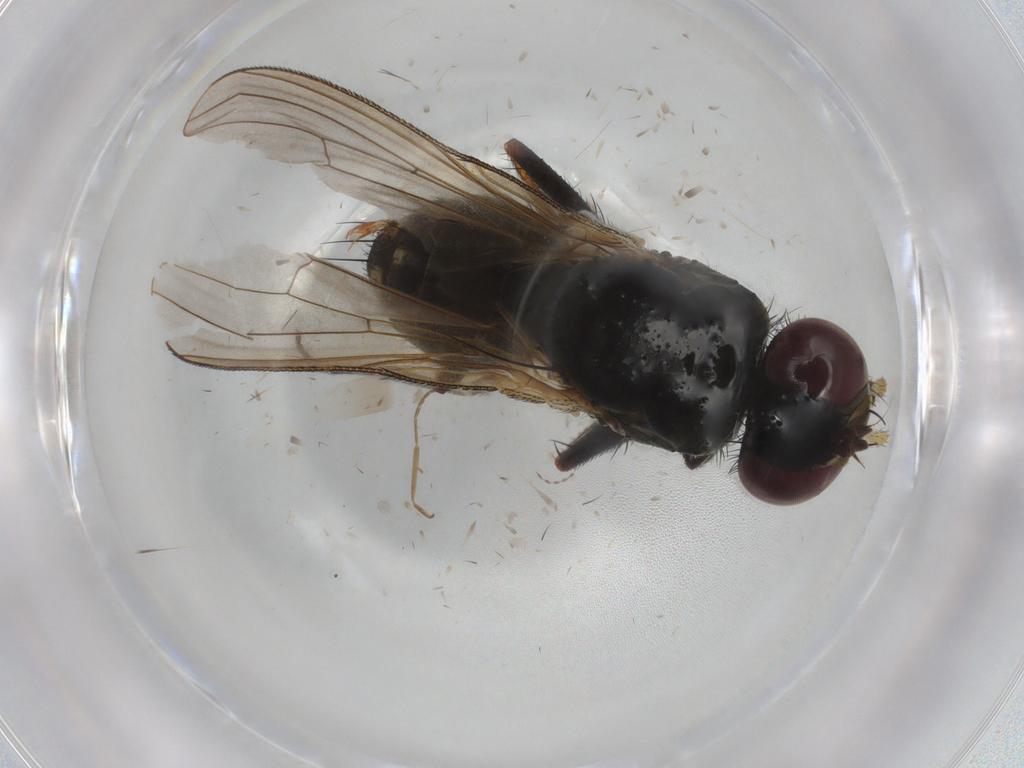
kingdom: Animalia
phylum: Arthropoda
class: Insecta
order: Diptera
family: Muscidae
